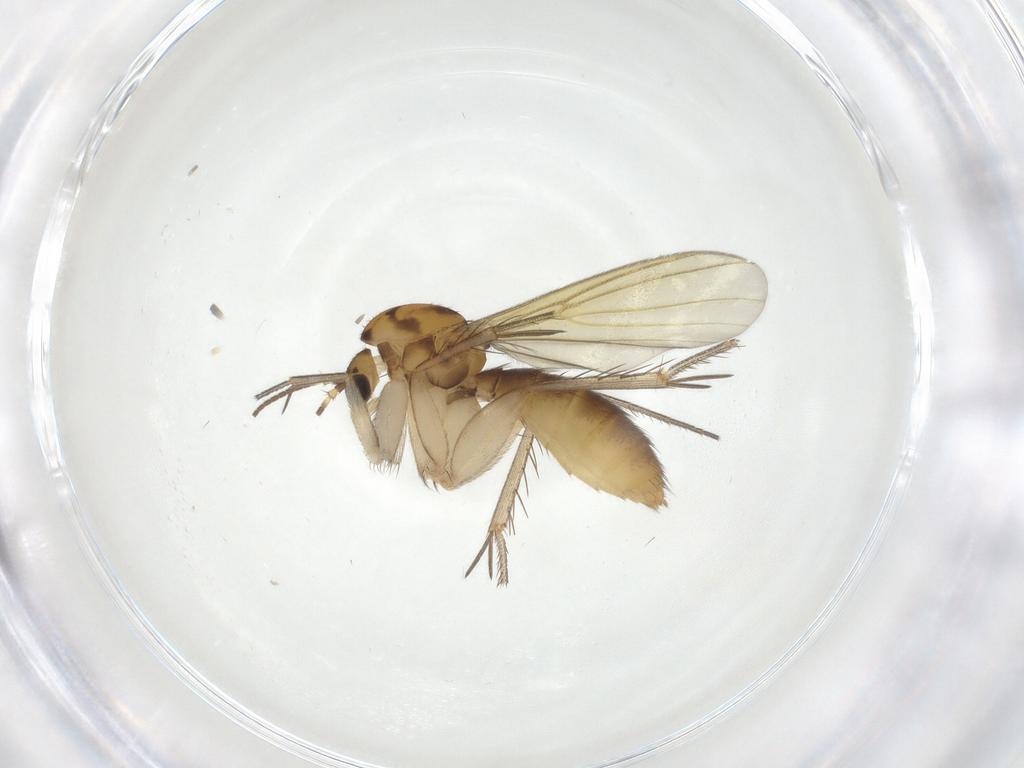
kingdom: Animalia
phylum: Arthropoda
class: Insecta
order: Diptera
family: Mycetophilidae
